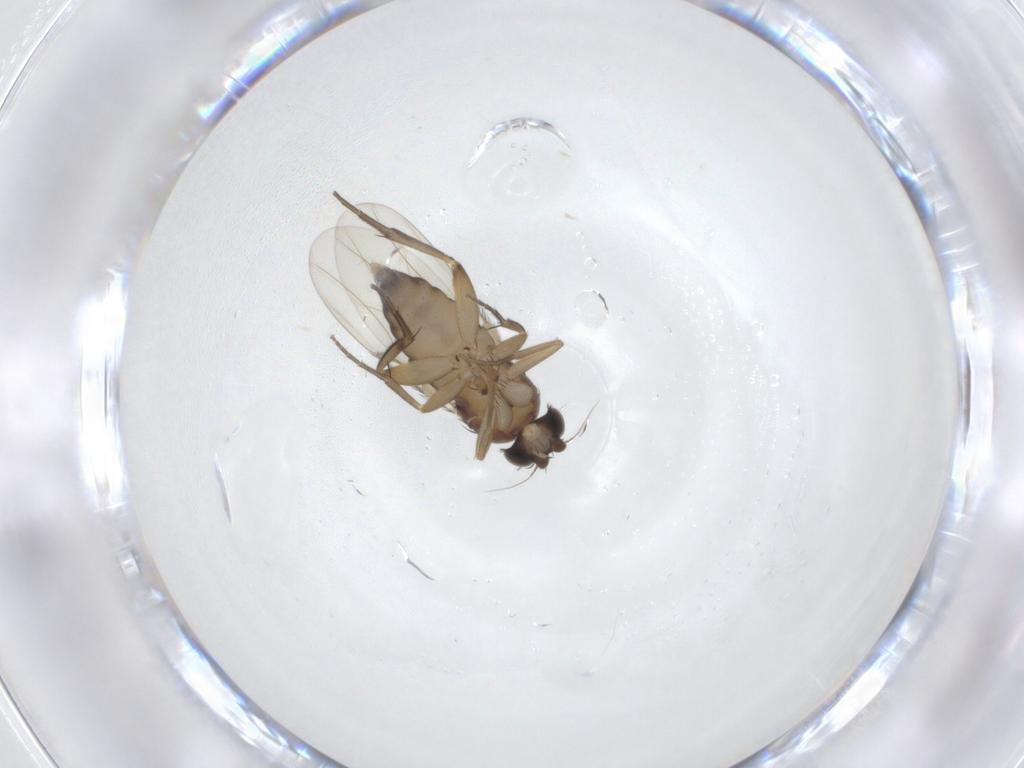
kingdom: Animalia
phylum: Arthropoda
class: Insecta
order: Diptera
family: Phoridae
